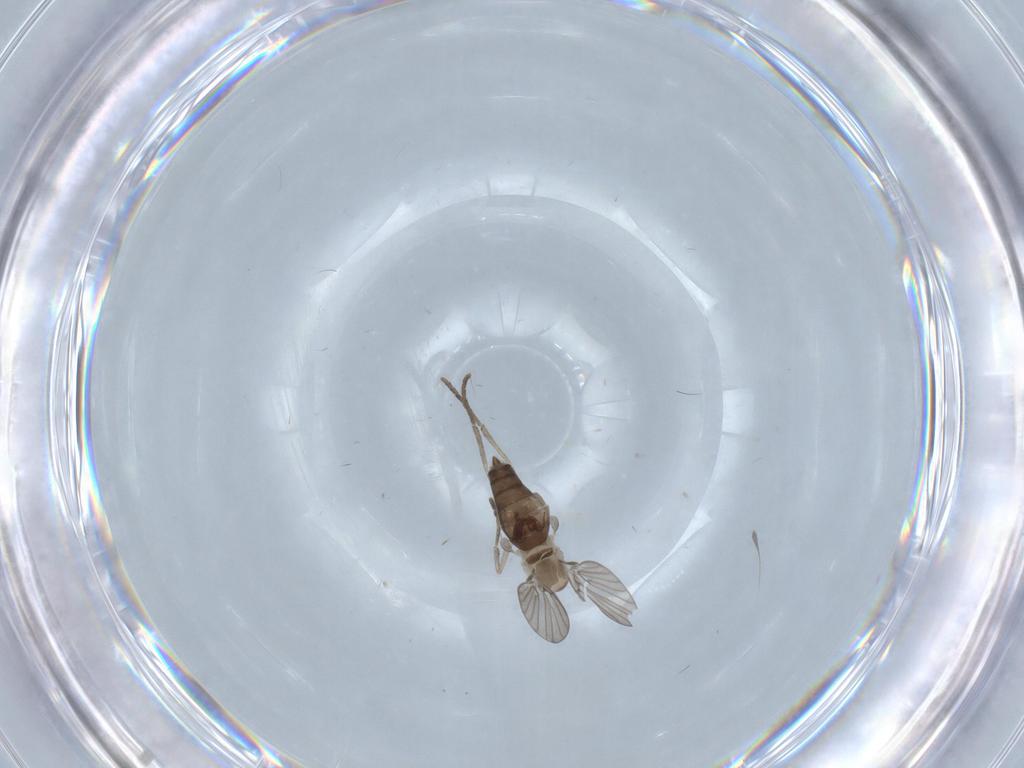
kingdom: Animalia
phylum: Arthropoda
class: Insecta
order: Diptera
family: Psychodidae
